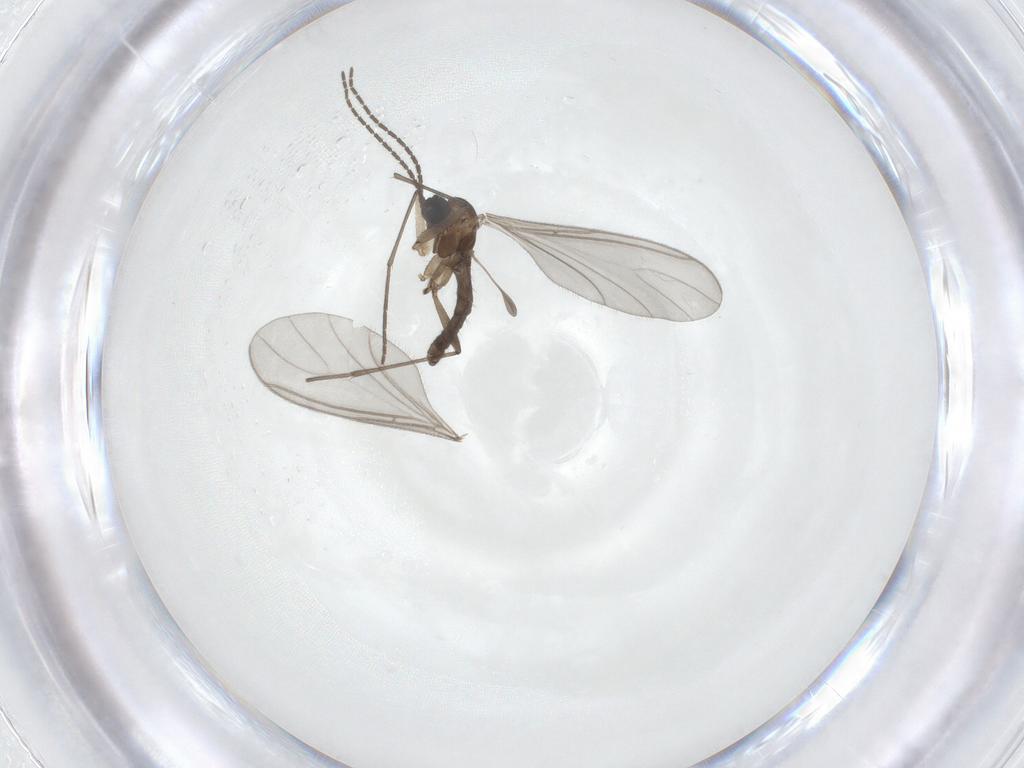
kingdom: Animalia
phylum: Arthropoda
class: Insecta
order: Diptera
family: Sciaridae
